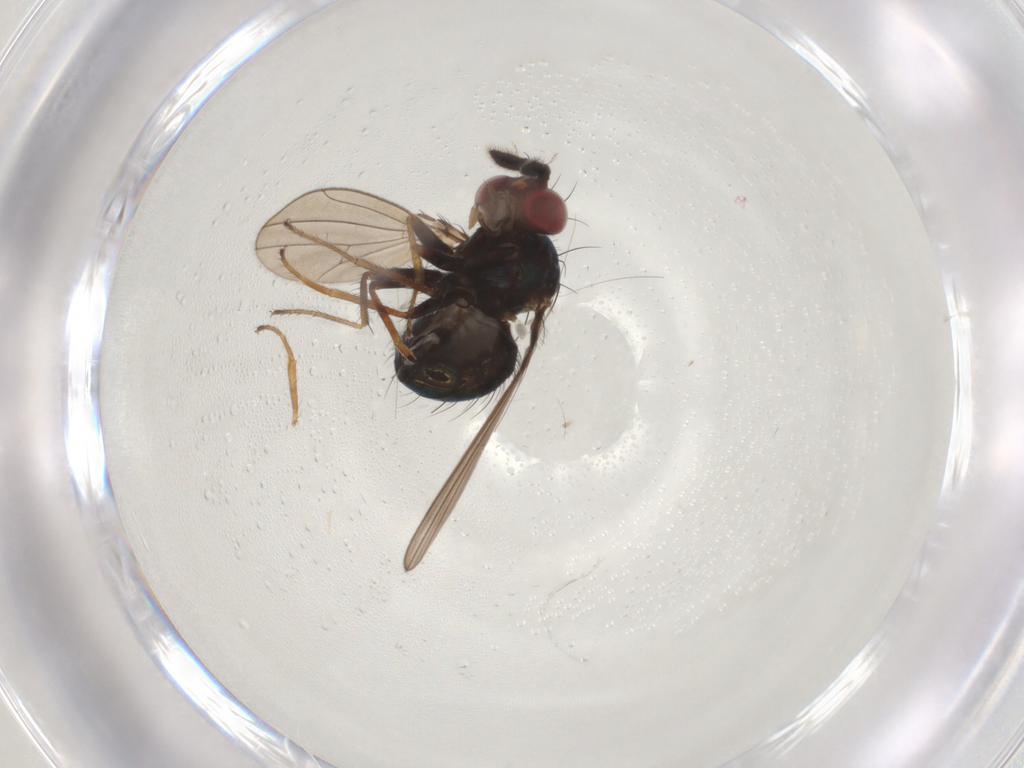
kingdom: Animalia
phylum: Arthropoda
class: Insecta
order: Diptera
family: Ephydridae
